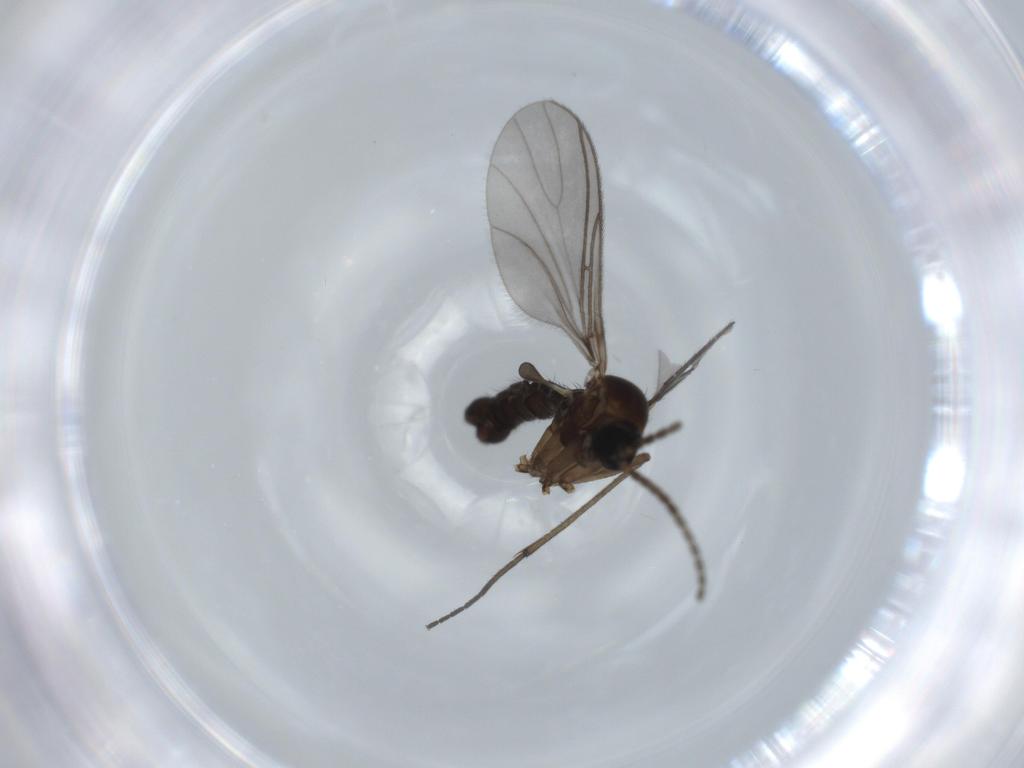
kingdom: Animalia
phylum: Arthropoda
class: Insecta
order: Diptera
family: Sciaridae
